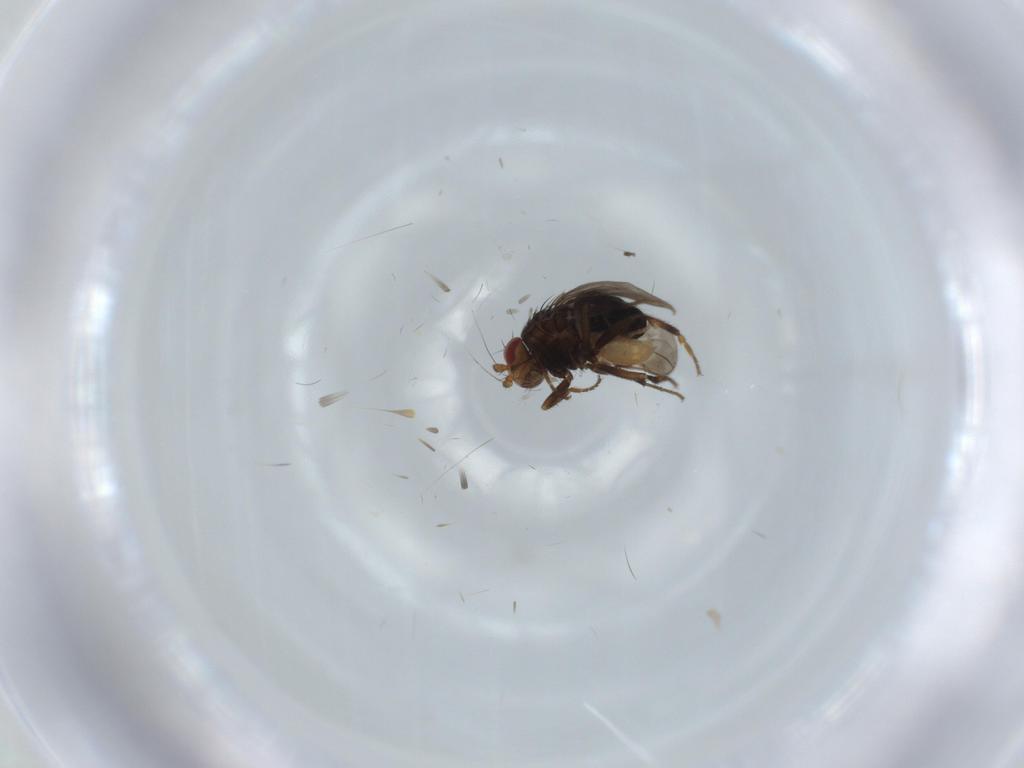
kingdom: Animalia
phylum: Arthropoda
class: Insecta
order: Diptera
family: Sphaeroceridae
